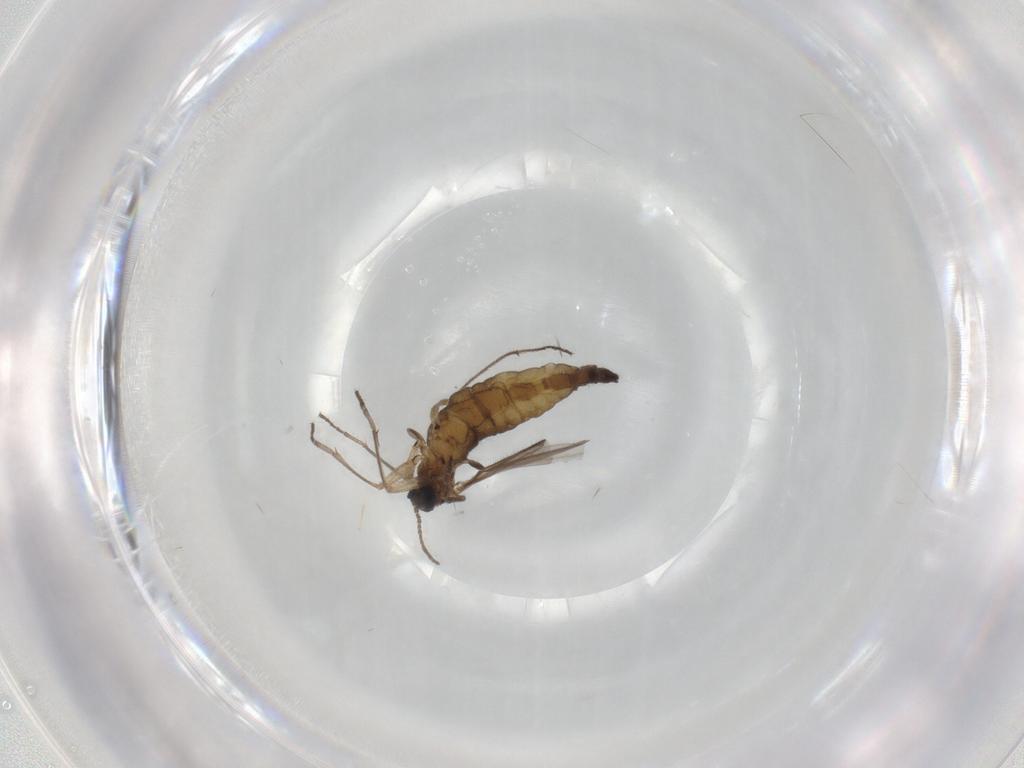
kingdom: Animalia
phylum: Arthropoda
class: Insecta
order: Diptera
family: Sciaridae
